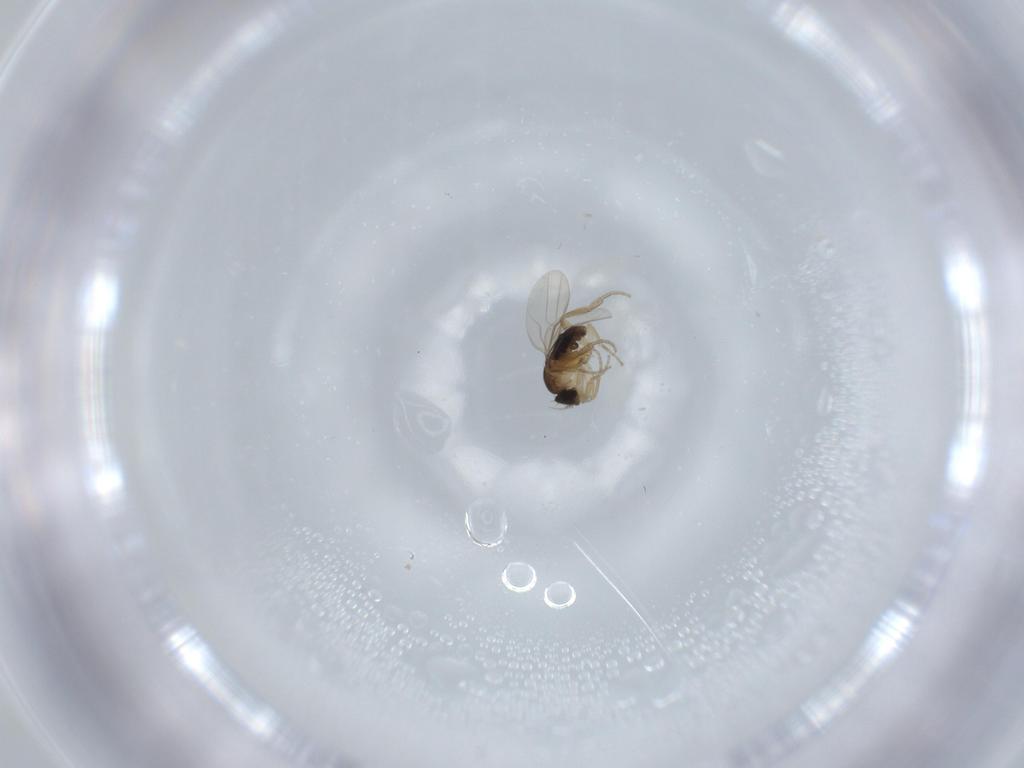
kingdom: Animalia
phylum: Arthropoda
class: Insecta
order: Diptera
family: Phoridae
